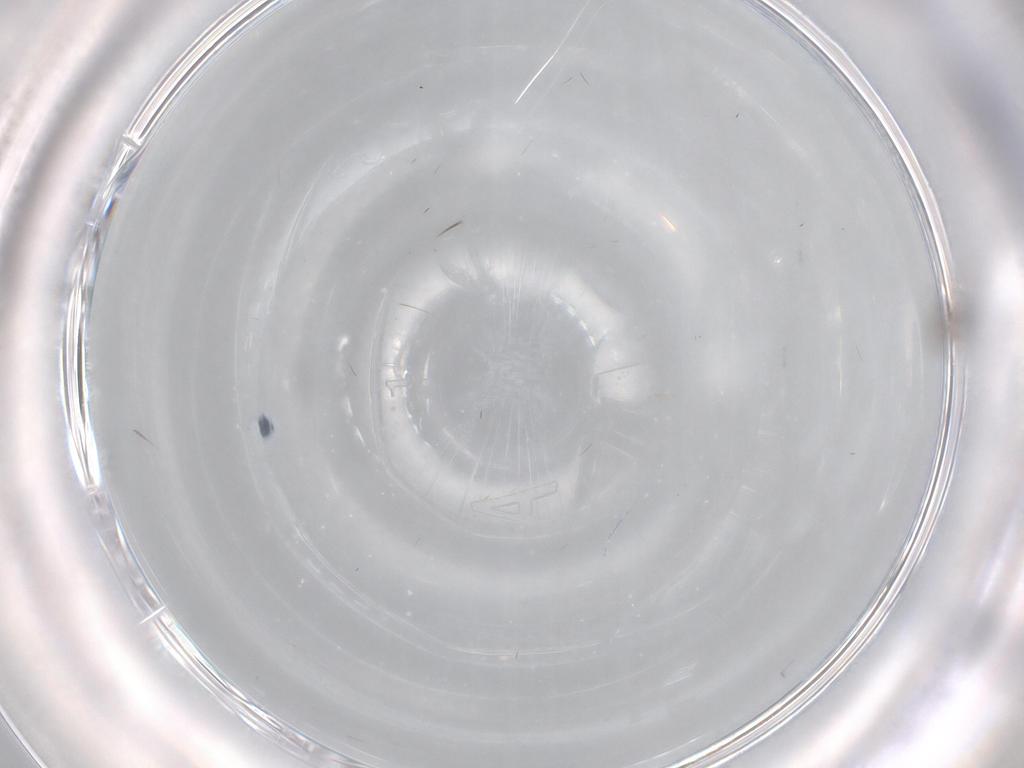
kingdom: Animalia
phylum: Arthropoda
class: Insecta
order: Diptera
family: Chironomidae
